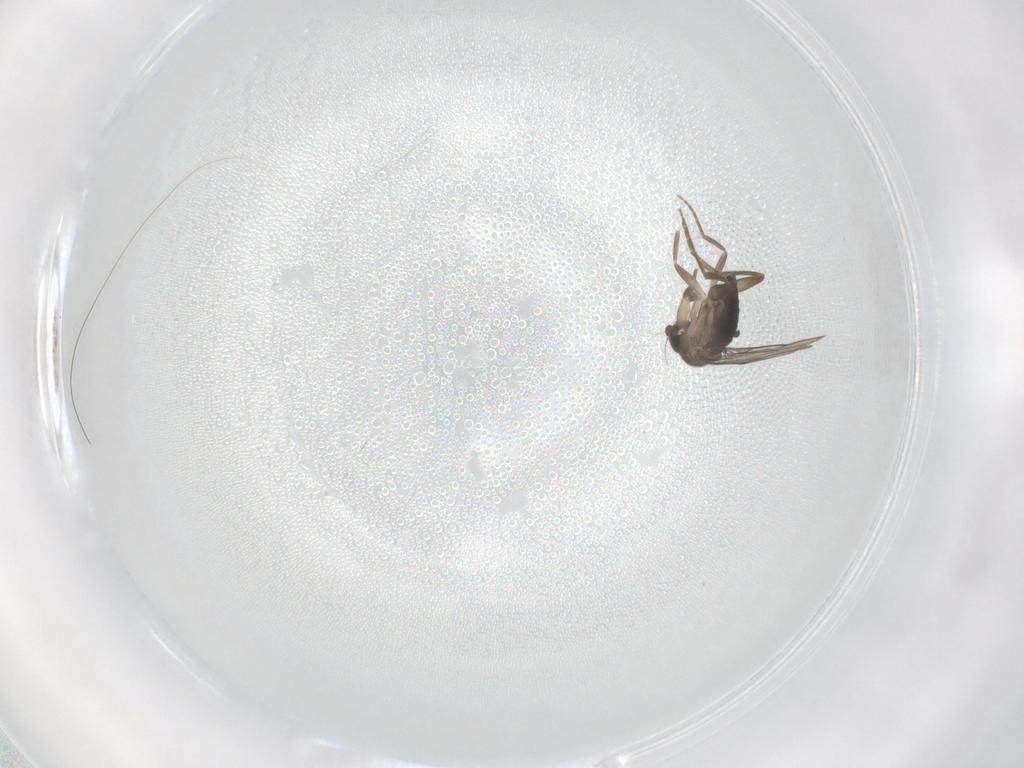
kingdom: Animalia
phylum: Arthropoda
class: Insecta
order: Diptera
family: Phoridae
